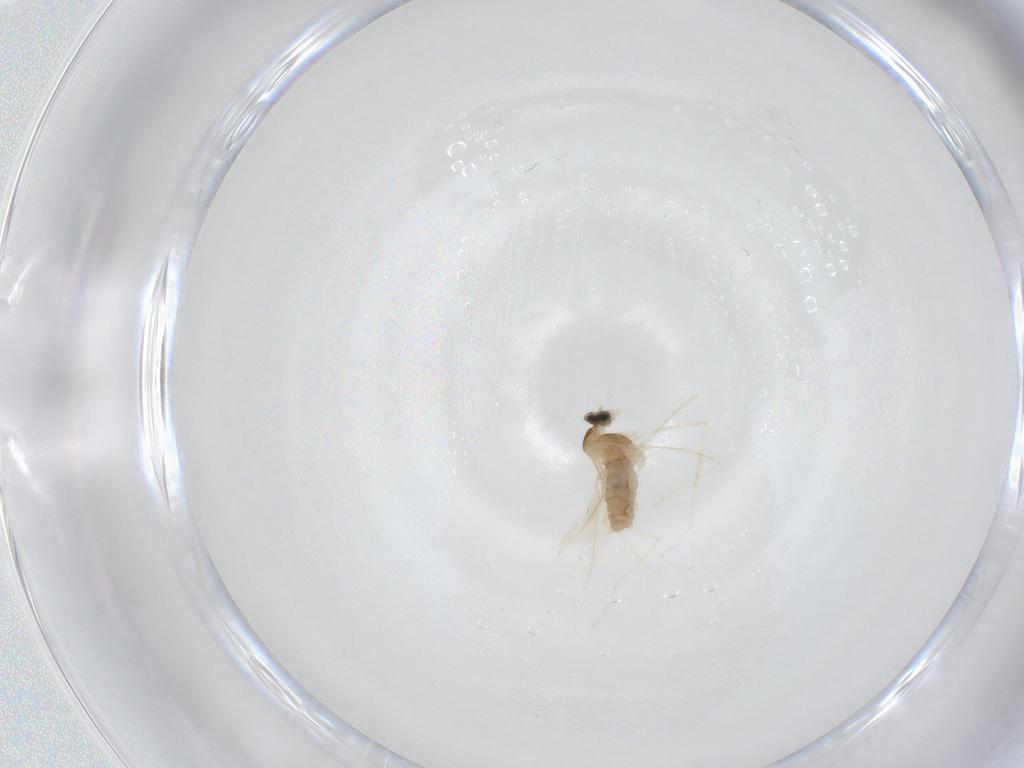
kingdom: Animalia
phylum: Arthropoda
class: Insecta
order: Diptera
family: Cecidomyiidae
